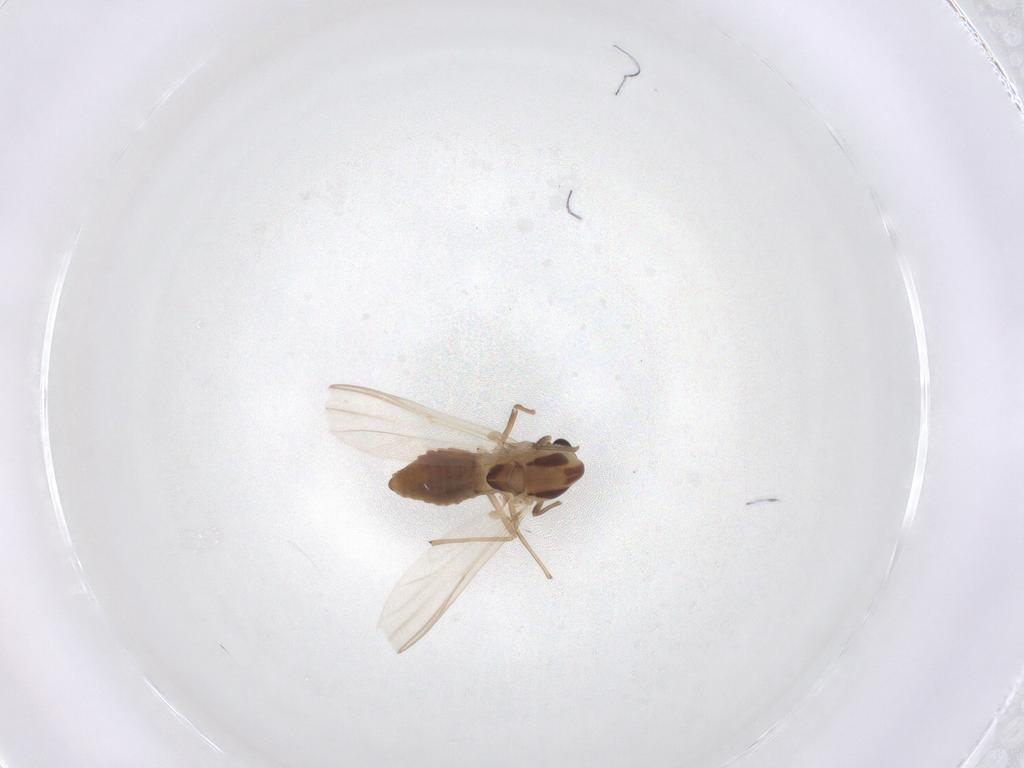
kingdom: Animalia
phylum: Arthropoda
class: Insecta
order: Diptera
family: Chironomidae
